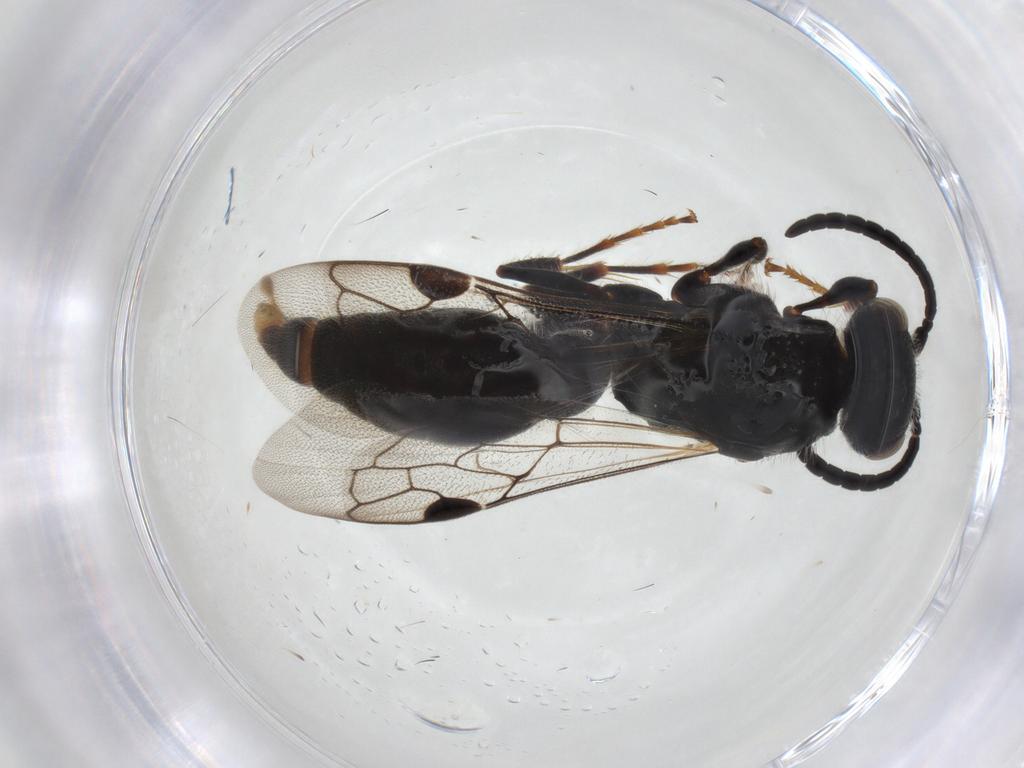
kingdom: Animalia
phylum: Arthropoda
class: Insecta
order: Hymenoptera
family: Tiphiidae
